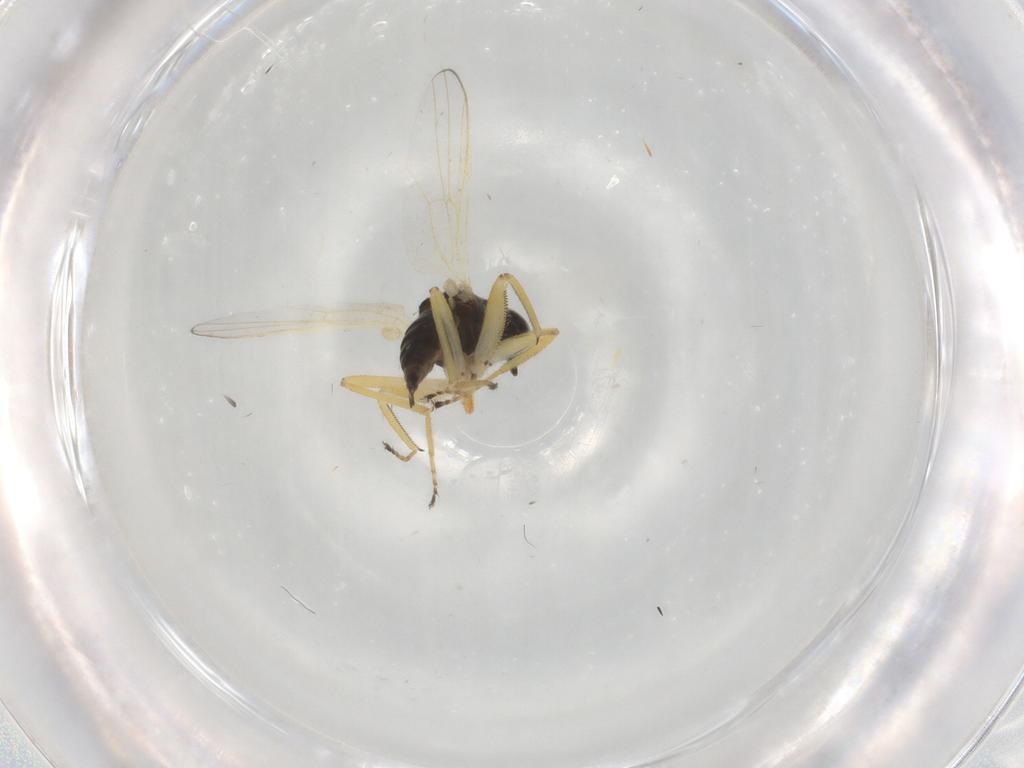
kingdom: Animalia
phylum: Arthropoda
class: Insecta
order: Diptera
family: Hybotidae
